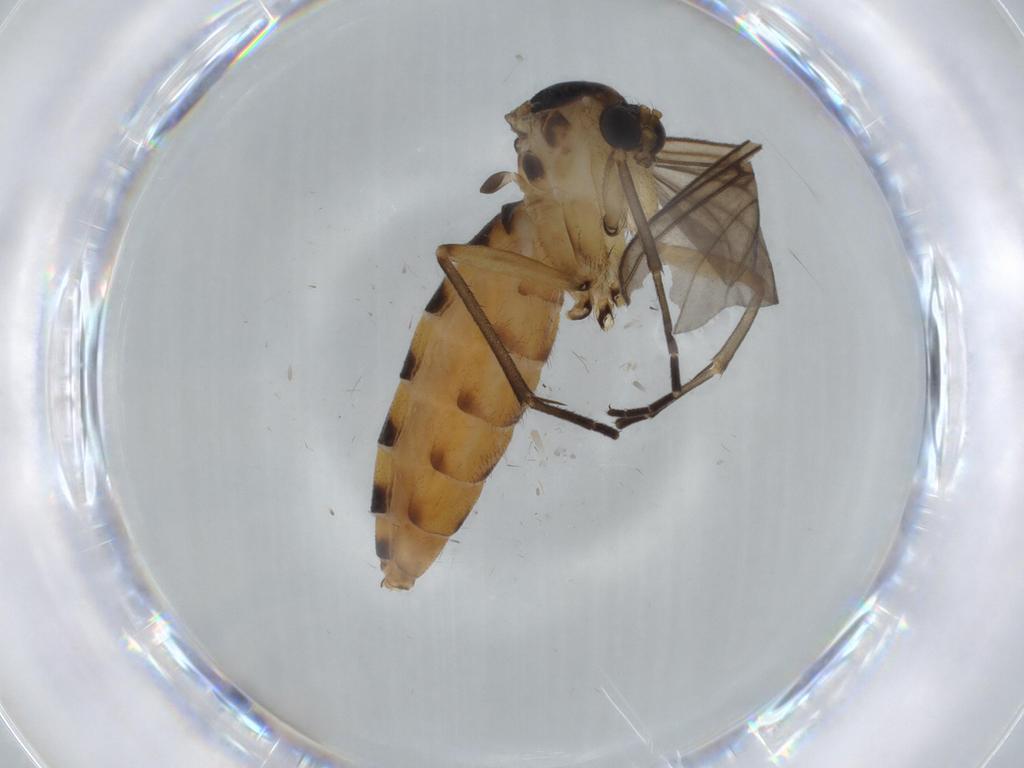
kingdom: Animalia
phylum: Arthropoda
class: Insecta
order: Diptera
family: Mycetophilidae
